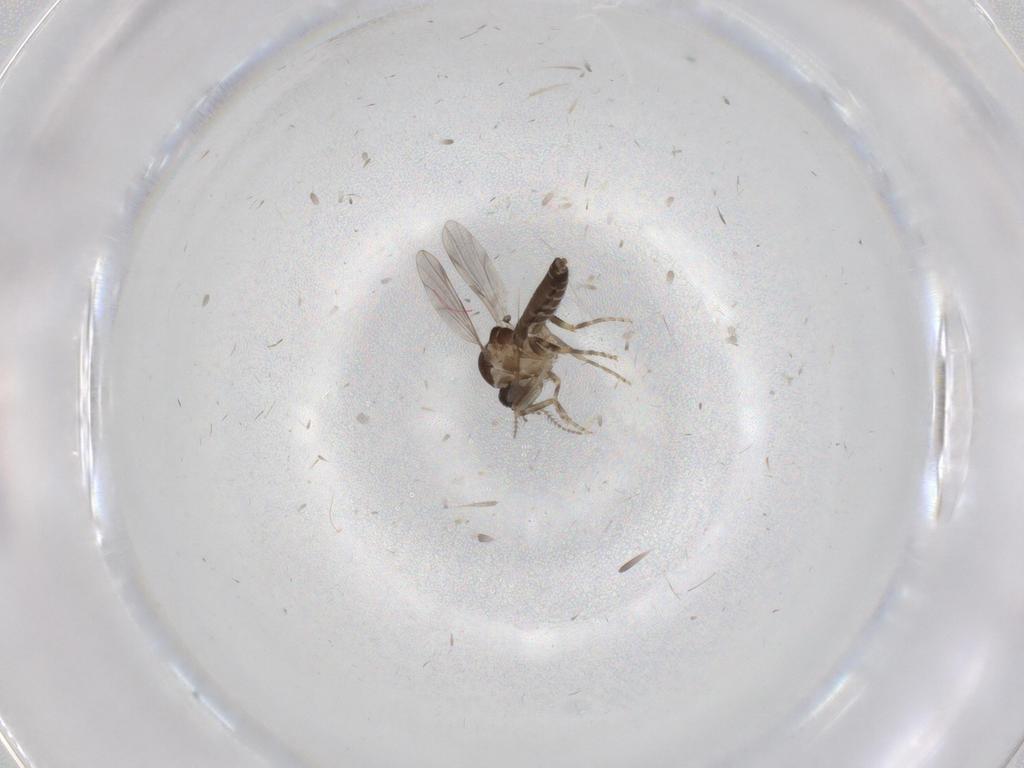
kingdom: Animalia
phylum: Arthropoda
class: Insecta
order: Diptera
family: Ceratopogonidae
